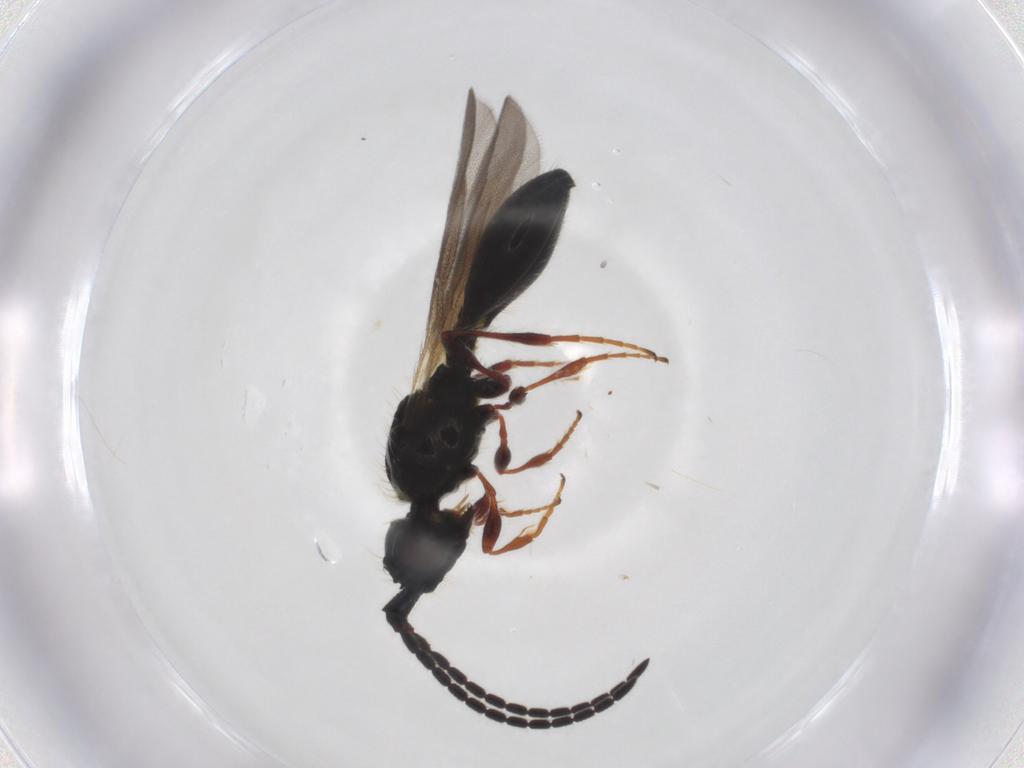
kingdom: Animalia
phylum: Arthropoda
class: Insecta
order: Hymenoptera
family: Diapriidae
